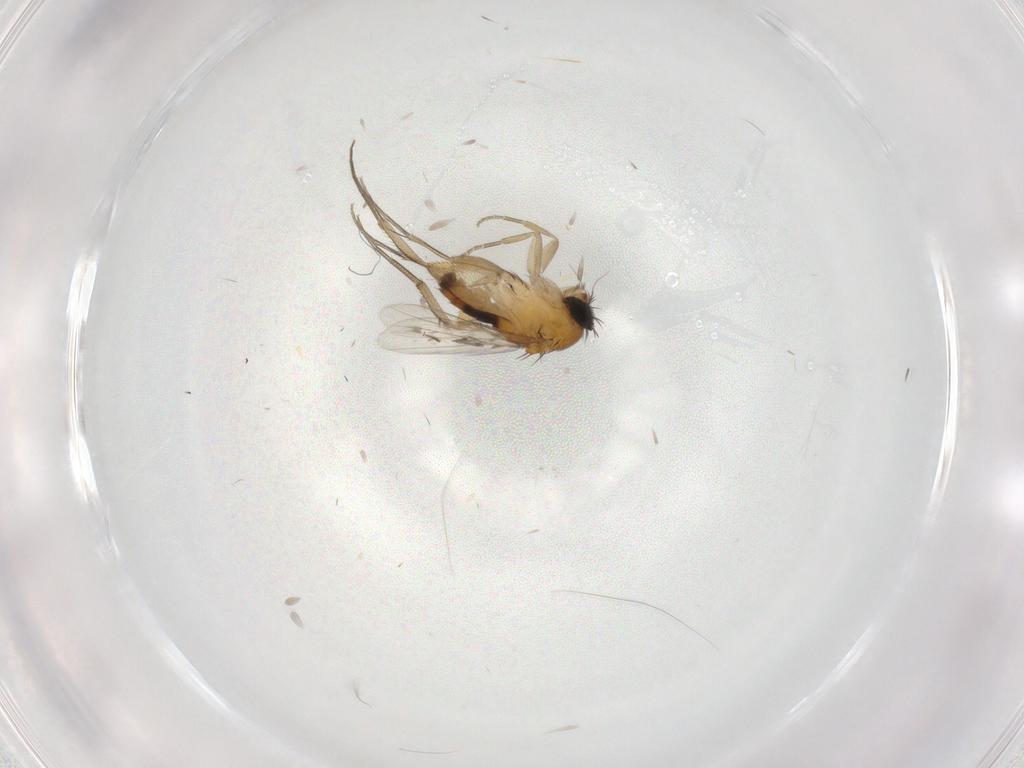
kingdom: Animalia
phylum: Arthropoda
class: Insecta
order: Diptera
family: Phoridae
